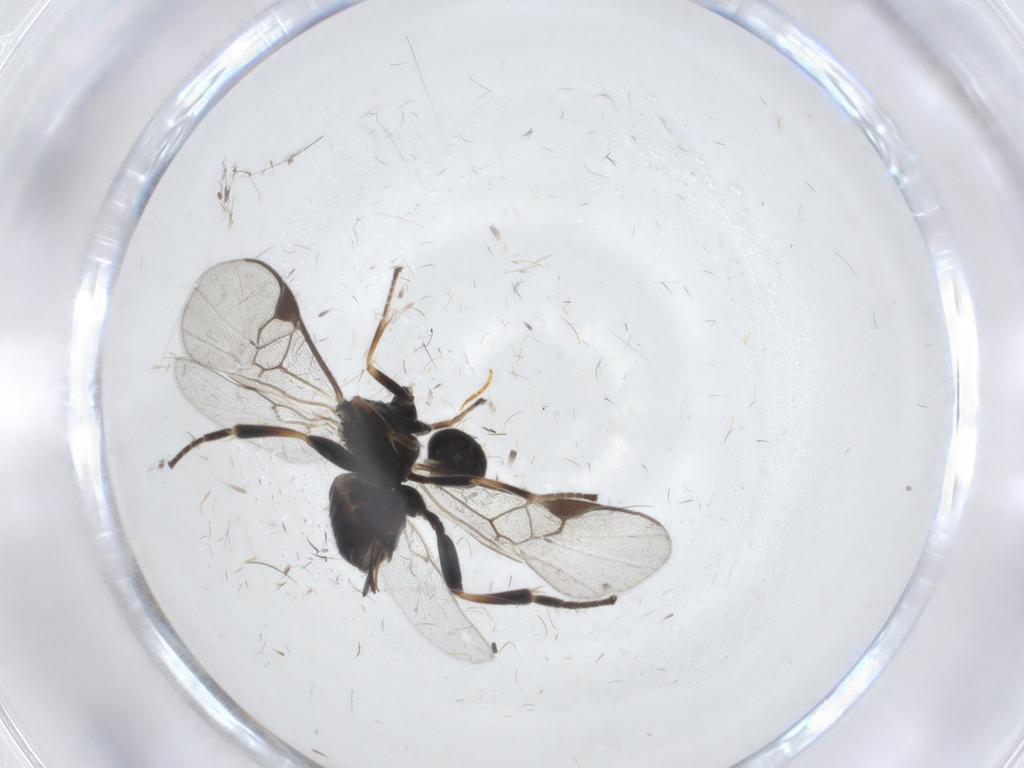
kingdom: Animalia
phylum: Arthropoda
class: Insecta
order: Hymenoptera
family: Braconidae
